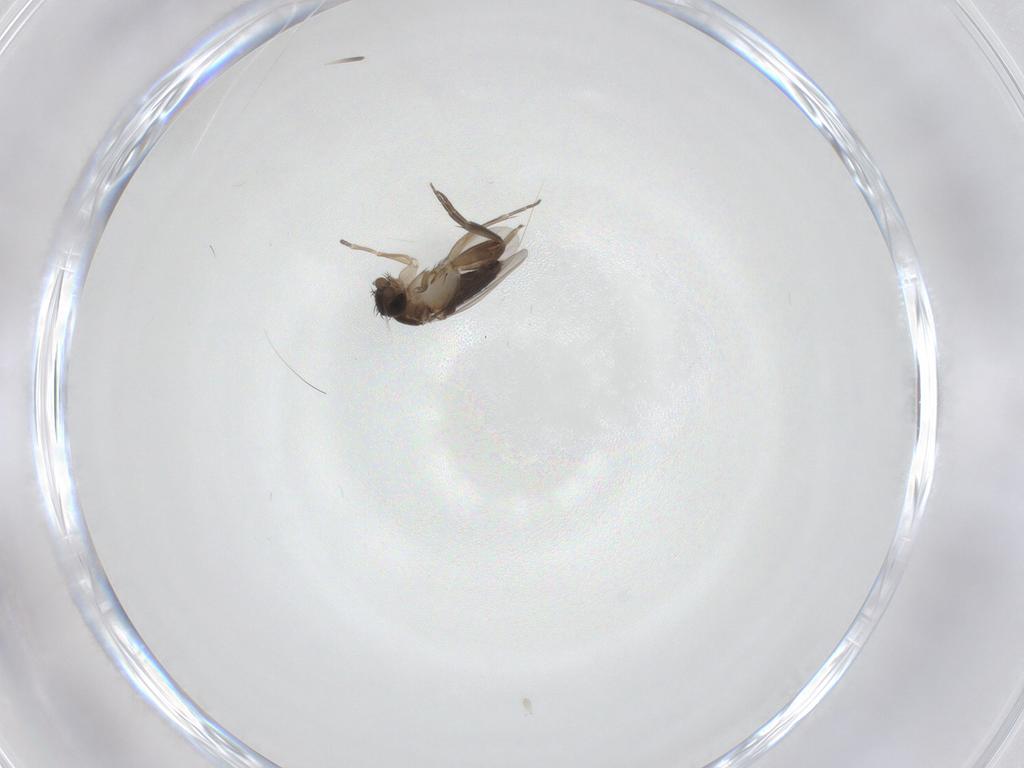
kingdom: Animalia
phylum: Arthropoda
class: Insecta
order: Diptera
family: Phoridae
